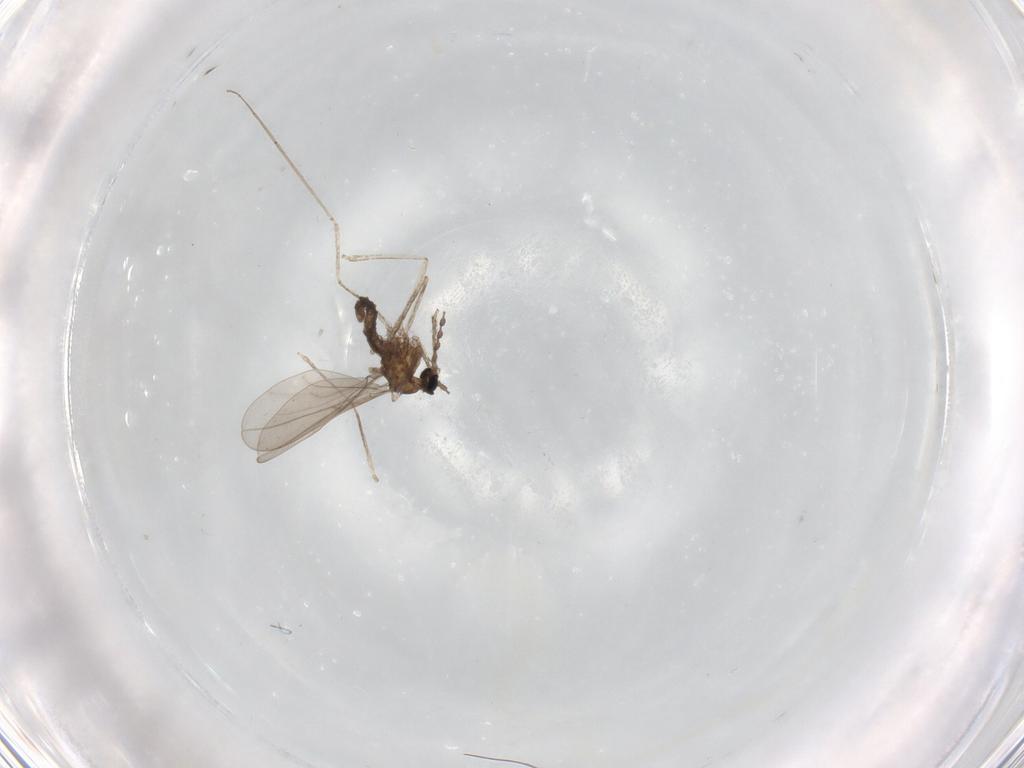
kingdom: Animalia
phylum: Arthropoda
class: Insecta
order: Diptera
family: Cecidomyiidae
